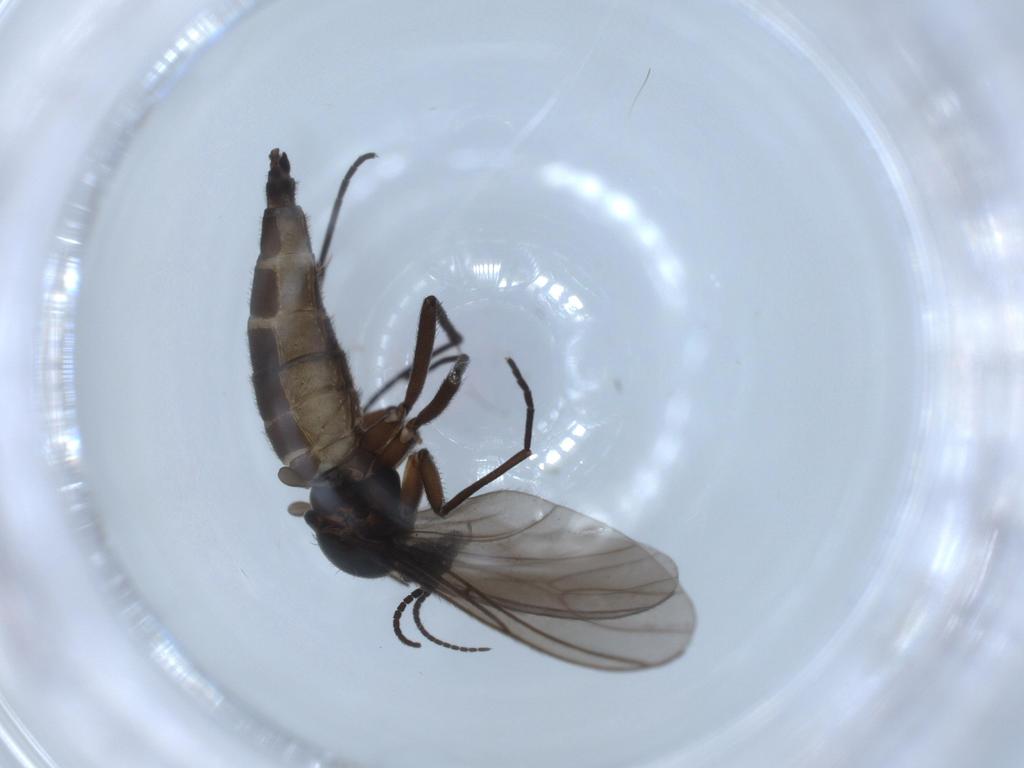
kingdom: Animalia
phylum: Arthropoda
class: Insecta
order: Diptera
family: Sciaridae
